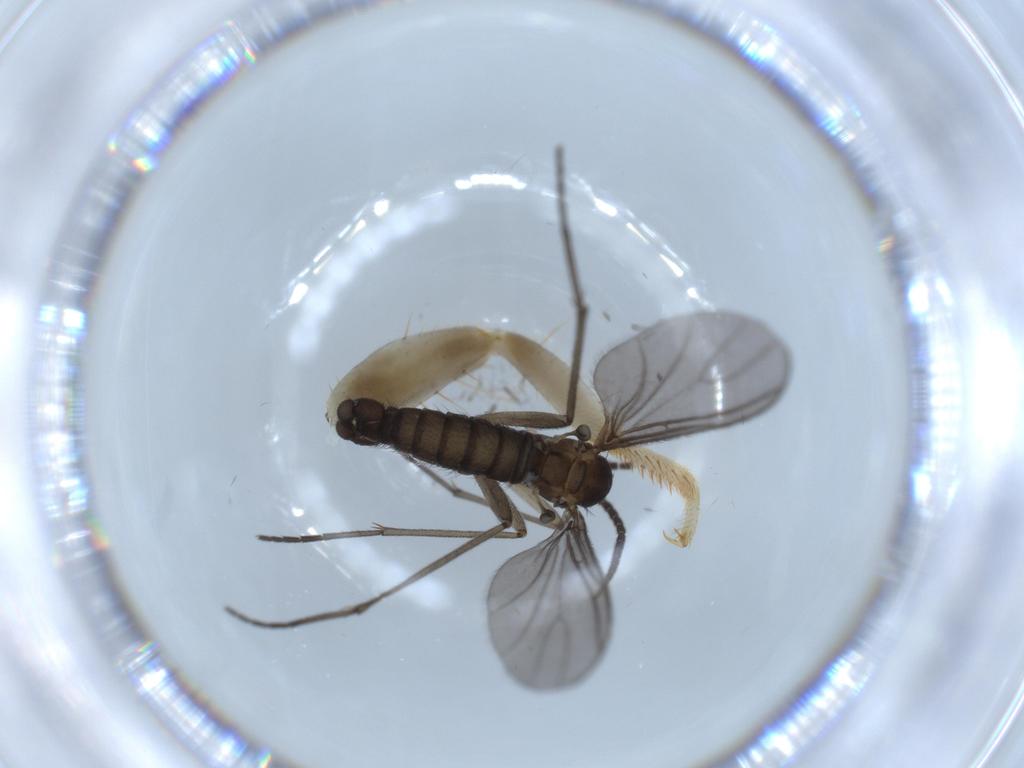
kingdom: Animalia
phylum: Arthropoda
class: Insecta
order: Diptera
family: Sciaridae
